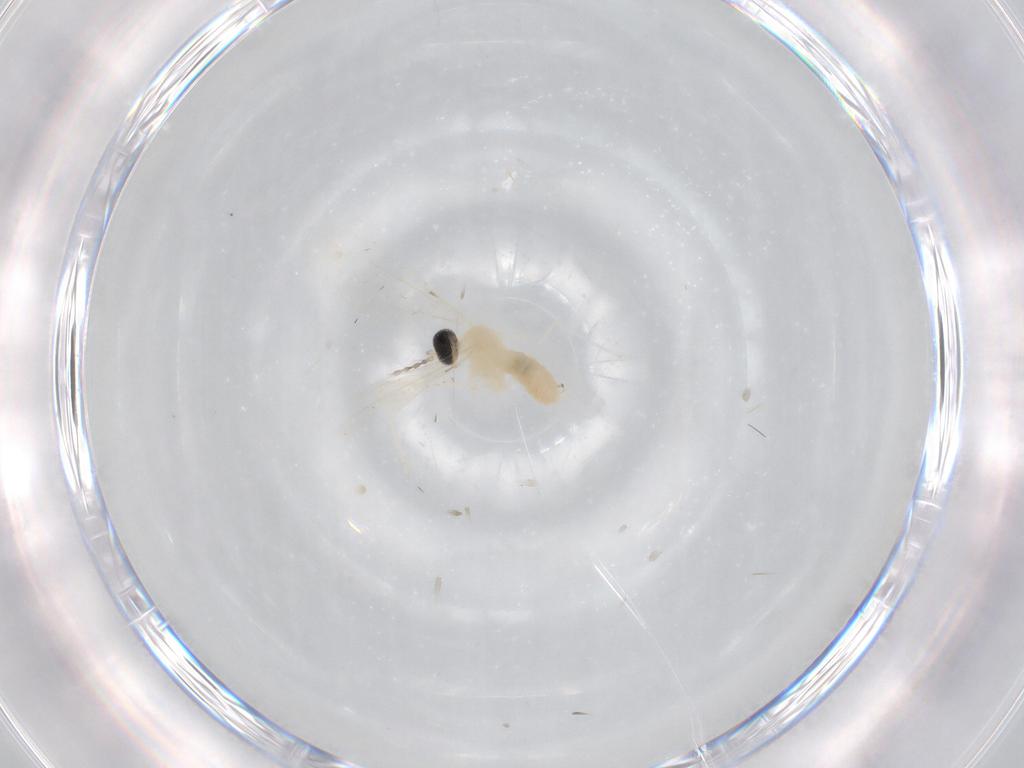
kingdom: Animalia
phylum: Arthropoda
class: Insecta
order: Diptera
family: Cecidomyiidae
